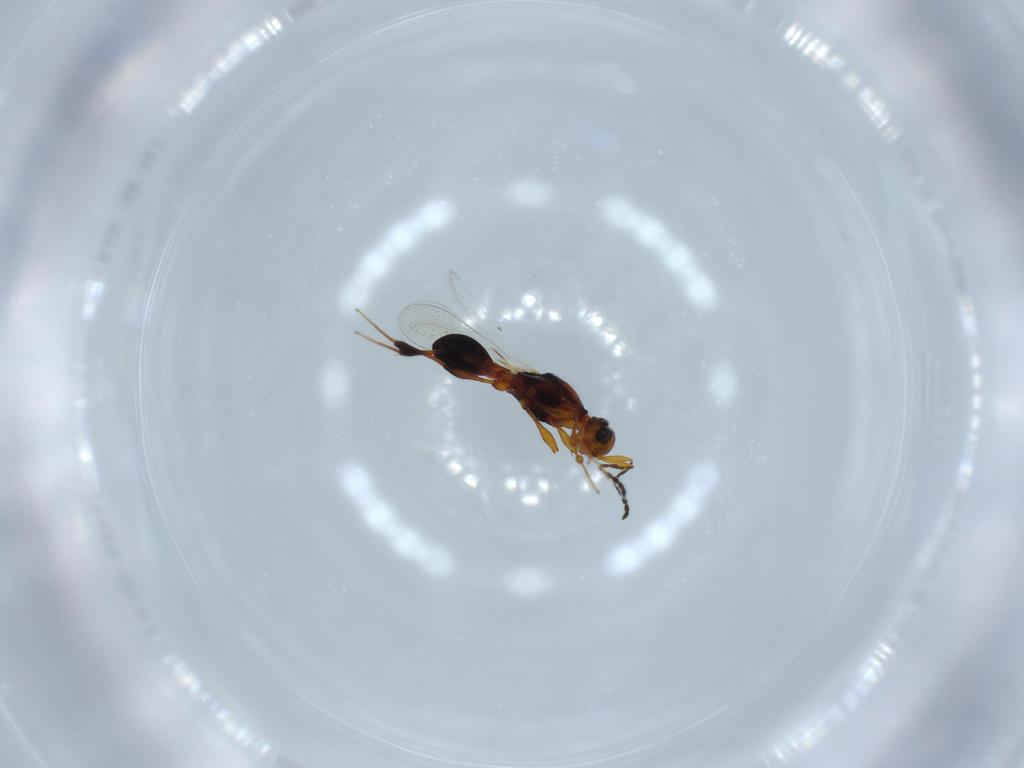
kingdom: Animalia
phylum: Arthropoda
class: Insecta
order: Hymenoptera
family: Platygastridae
